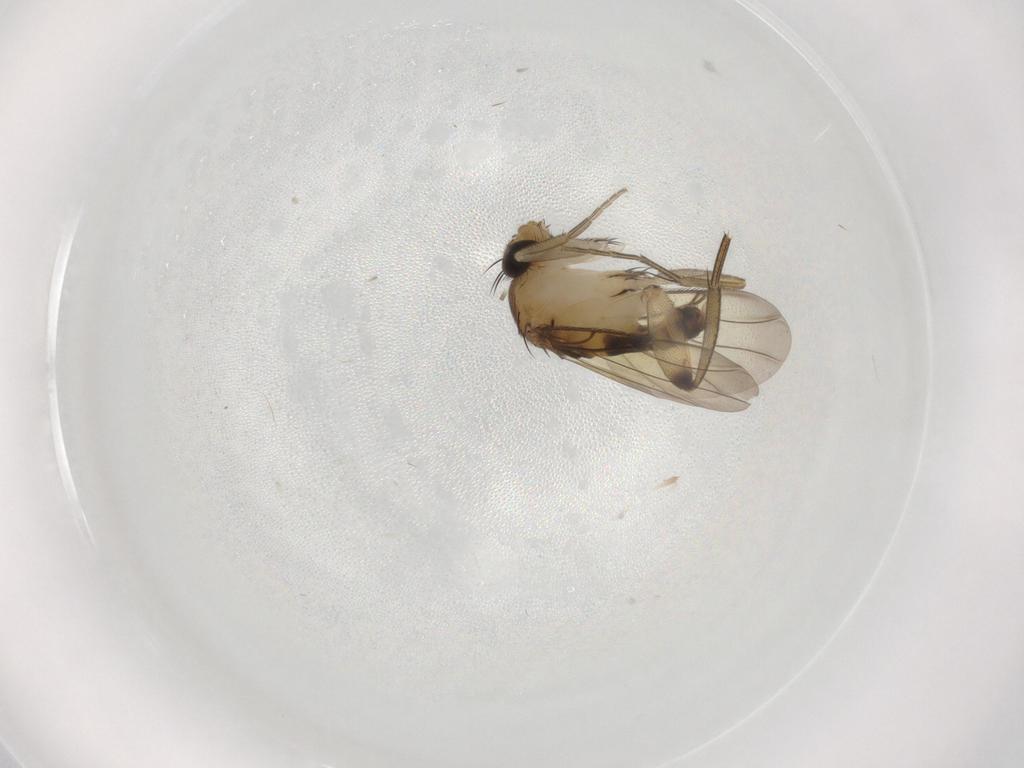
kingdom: Animalia
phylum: Arthropoda
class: Insecta
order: Diptera
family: Phoridae
